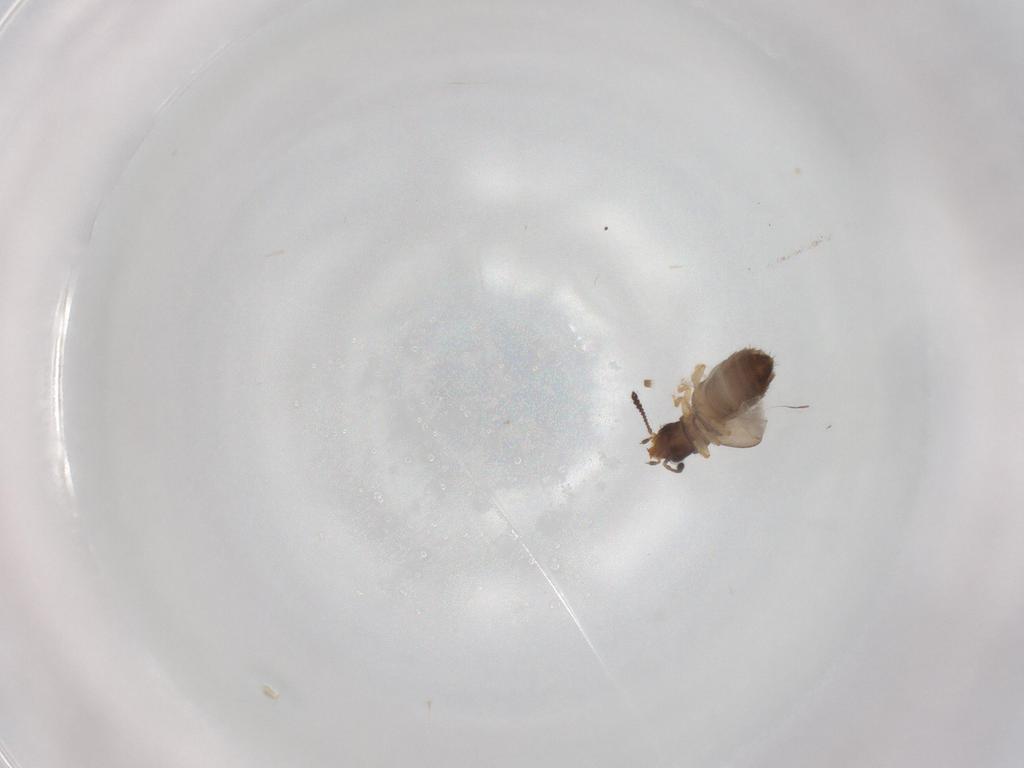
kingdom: Animalia
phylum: Arthropoda
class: Insecta
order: Coleoptera
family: Staphylinidae
